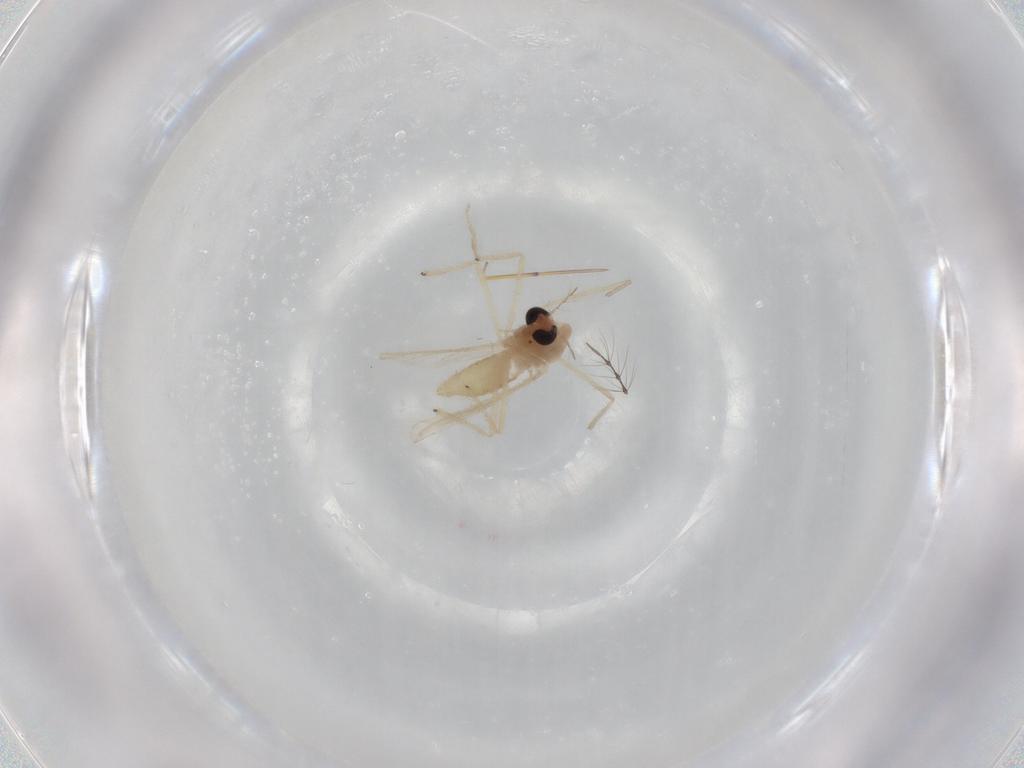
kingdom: Animalia
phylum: Arthropoda
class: Insecta
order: Diptera
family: Chironomidae
